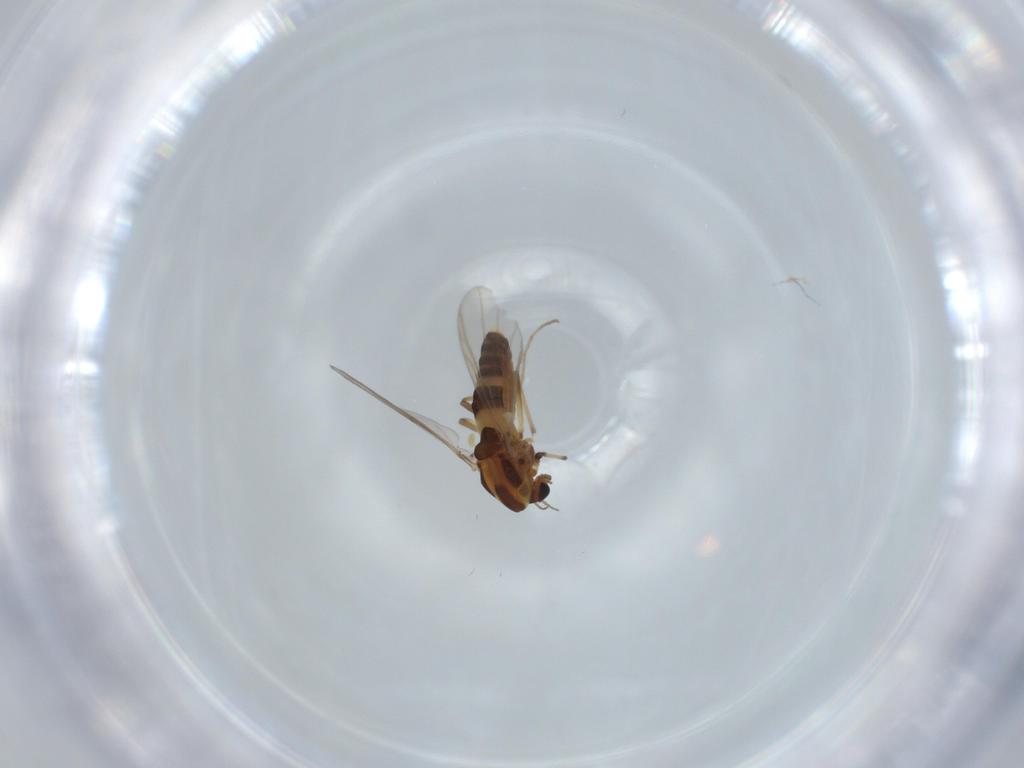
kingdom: Animalia
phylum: Arthropoda
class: Insecta
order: Diptera
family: Chironomidae
